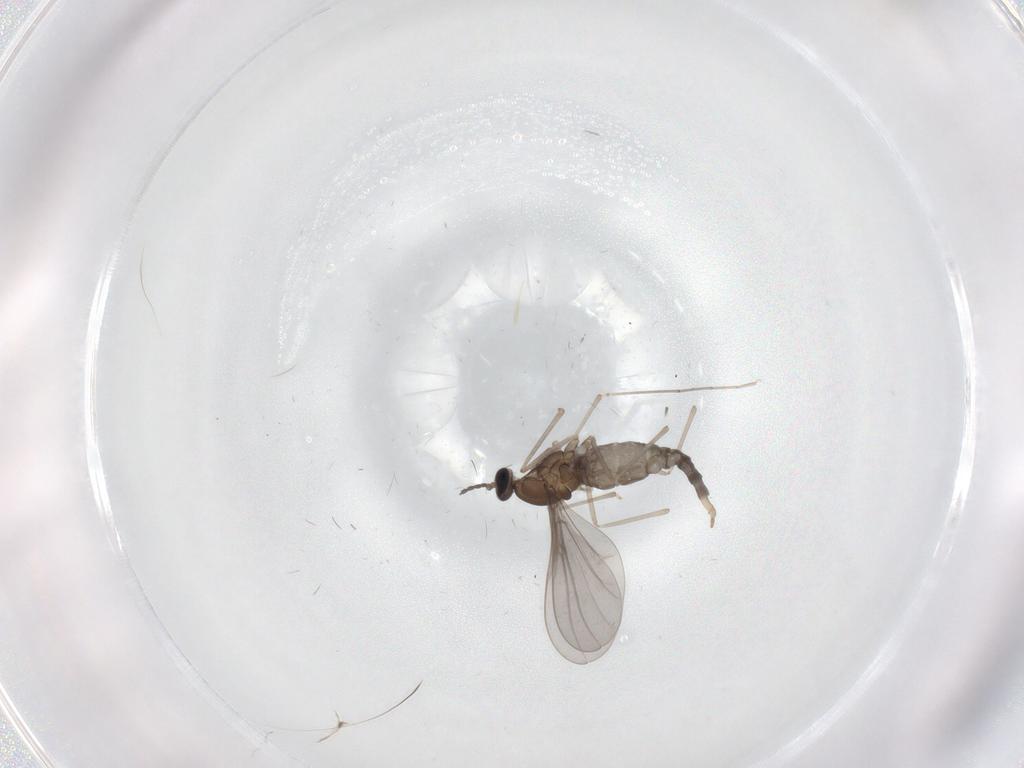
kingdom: Animalia
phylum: Arthropoda
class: Insecta
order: Diptera
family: Cecidomyiidae
